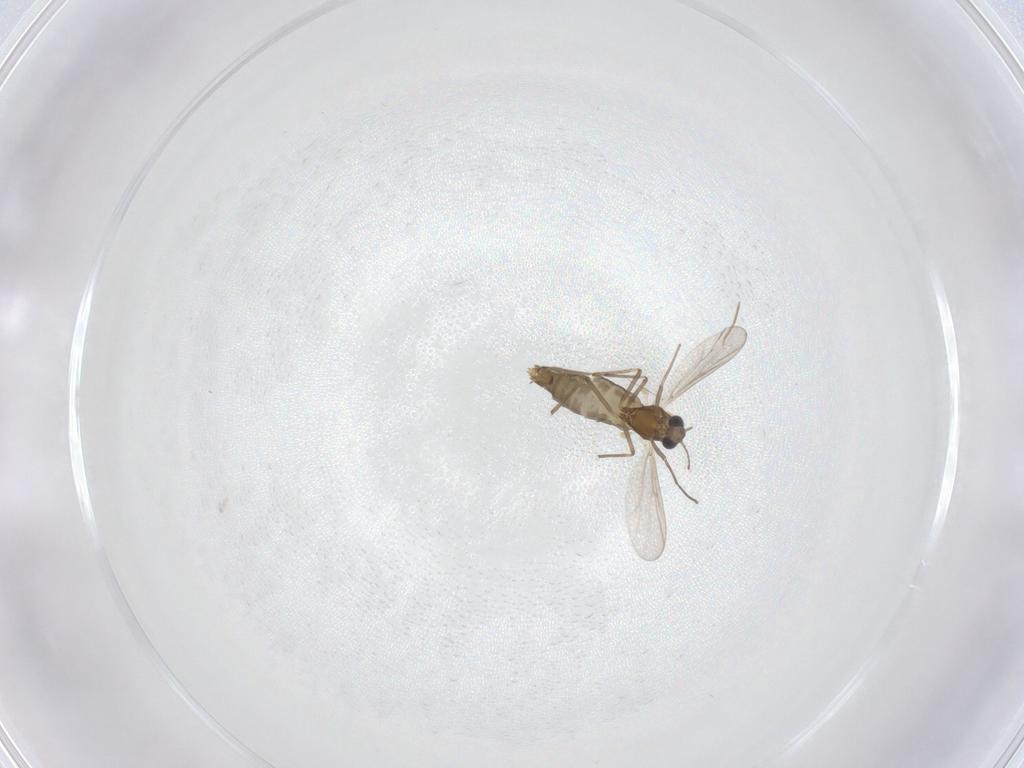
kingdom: Animalia
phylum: Arthropoda
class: Insecta
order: Diptera
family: Chironomidae
